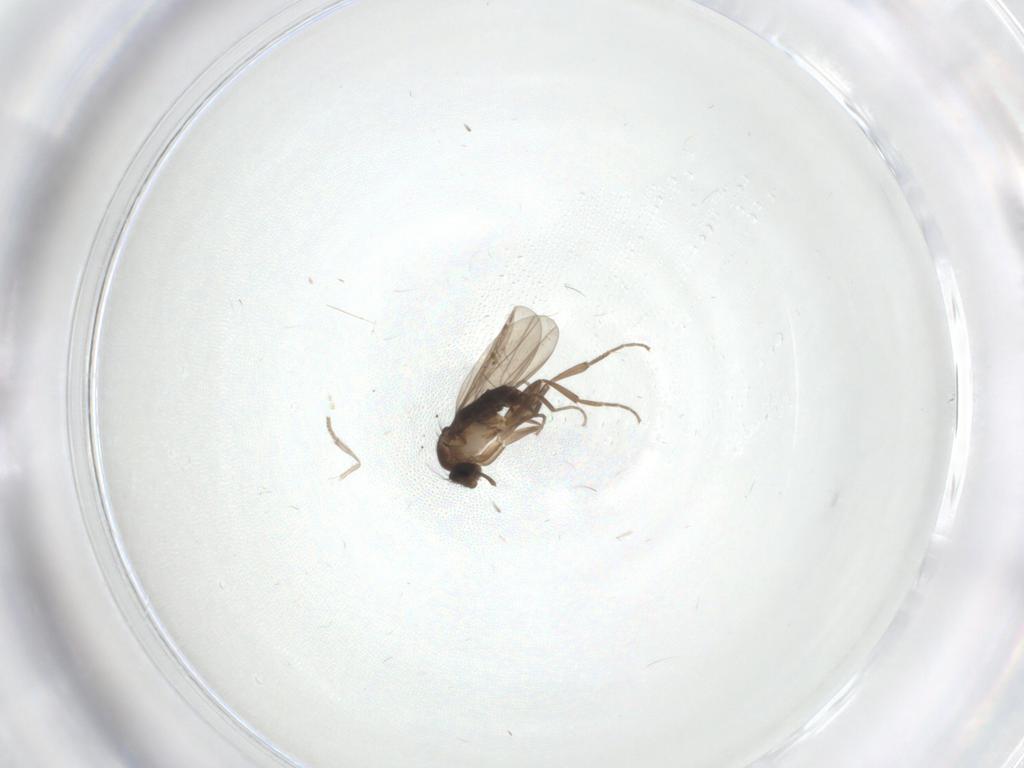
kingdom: Animalia
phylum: Arthropoda
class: Insecta
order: Diptera
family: Phoridae
